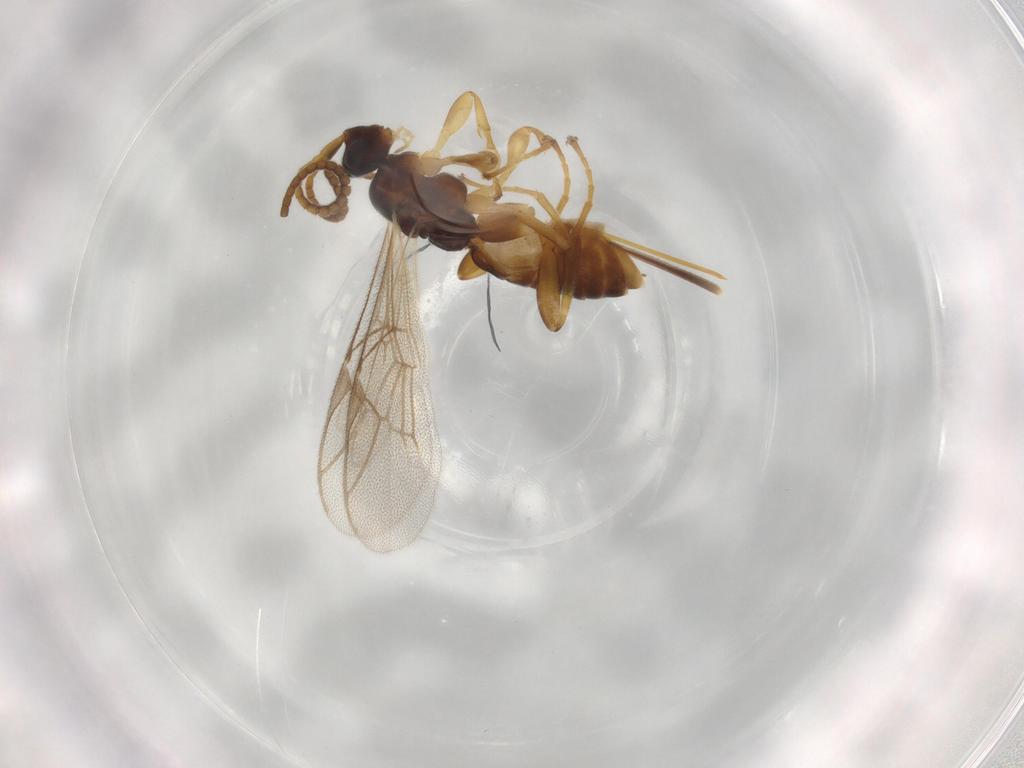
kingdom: Animalia
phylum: Arthropoda
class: Insecta
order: Hymenoptera
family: Ichneumonidae
